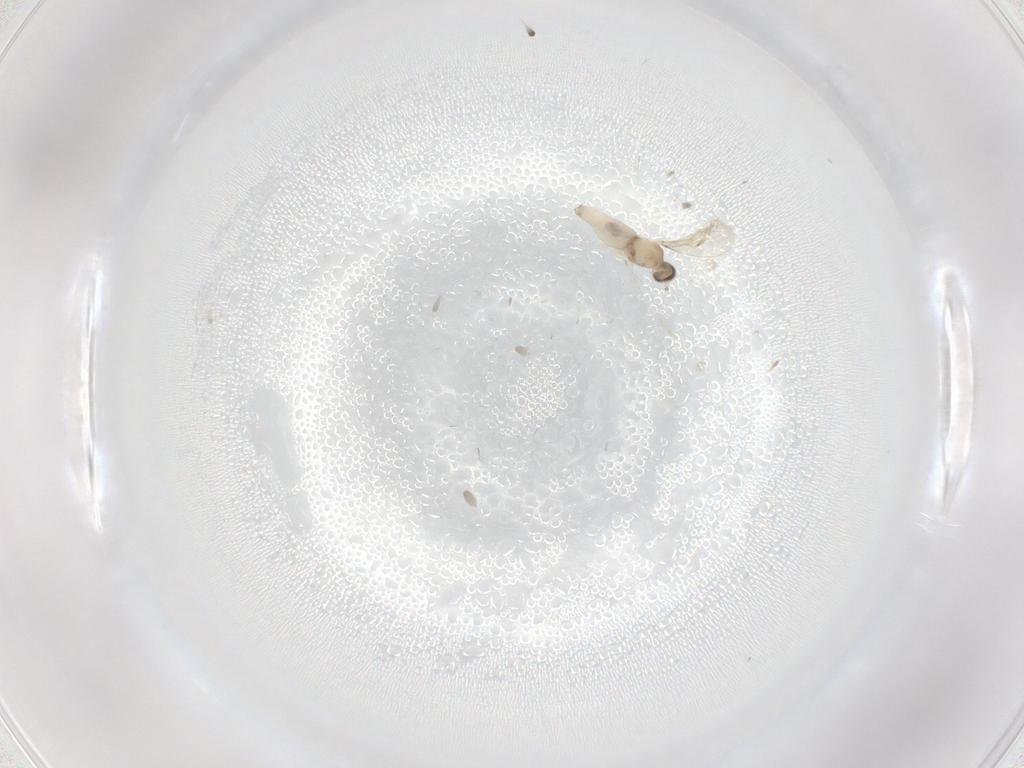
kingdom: Animalia
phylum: Arthropoda
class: Insecta
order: Diptera
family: Cecidomyiidae
